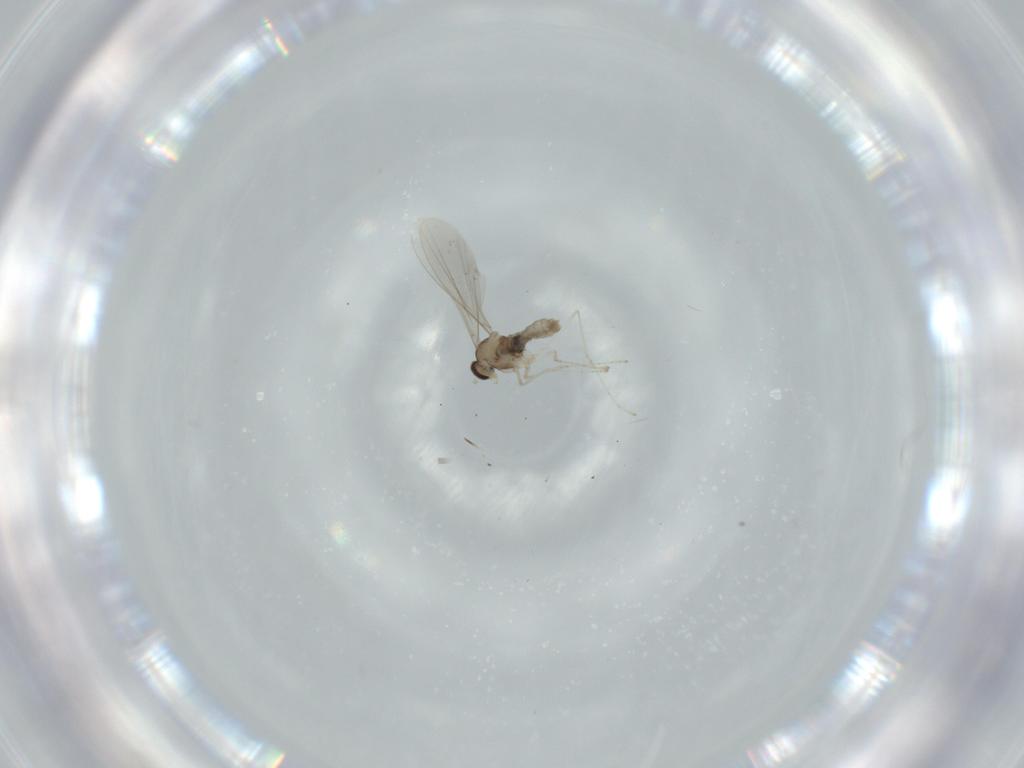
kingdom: Animalia
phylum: Arthropoda
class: Insecta
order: Diptera
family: Cecidomyiidae
